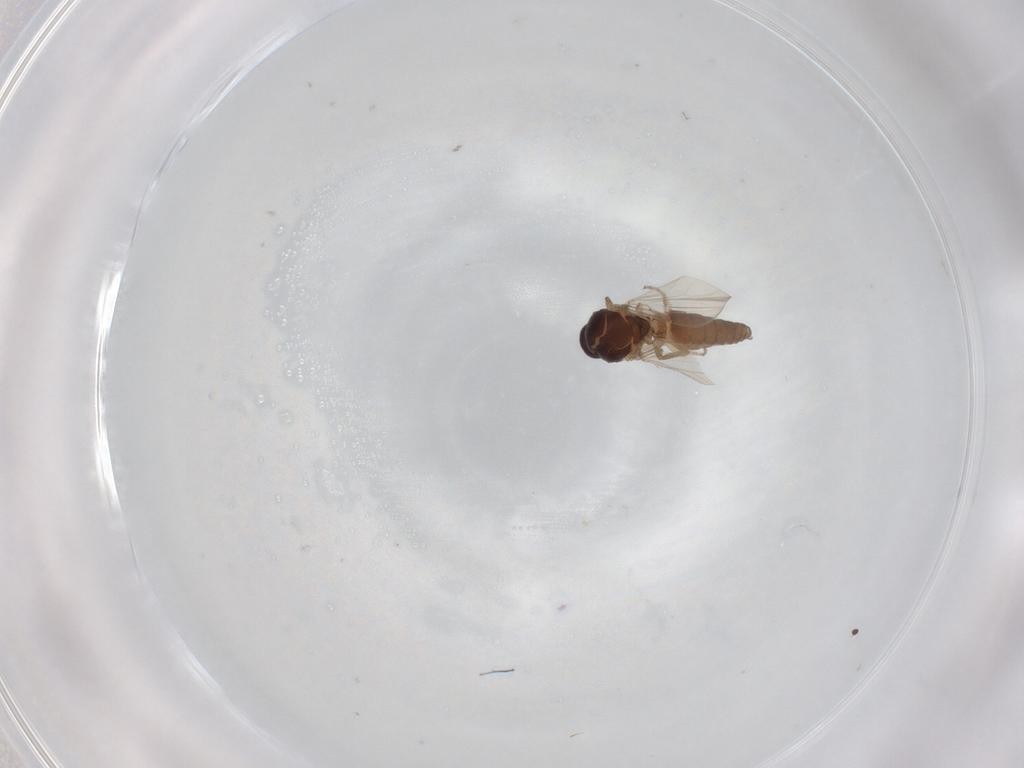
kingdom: Animalia
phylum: Arthropoda
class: Insecta
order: Diptera
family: Ceratopogonidae
